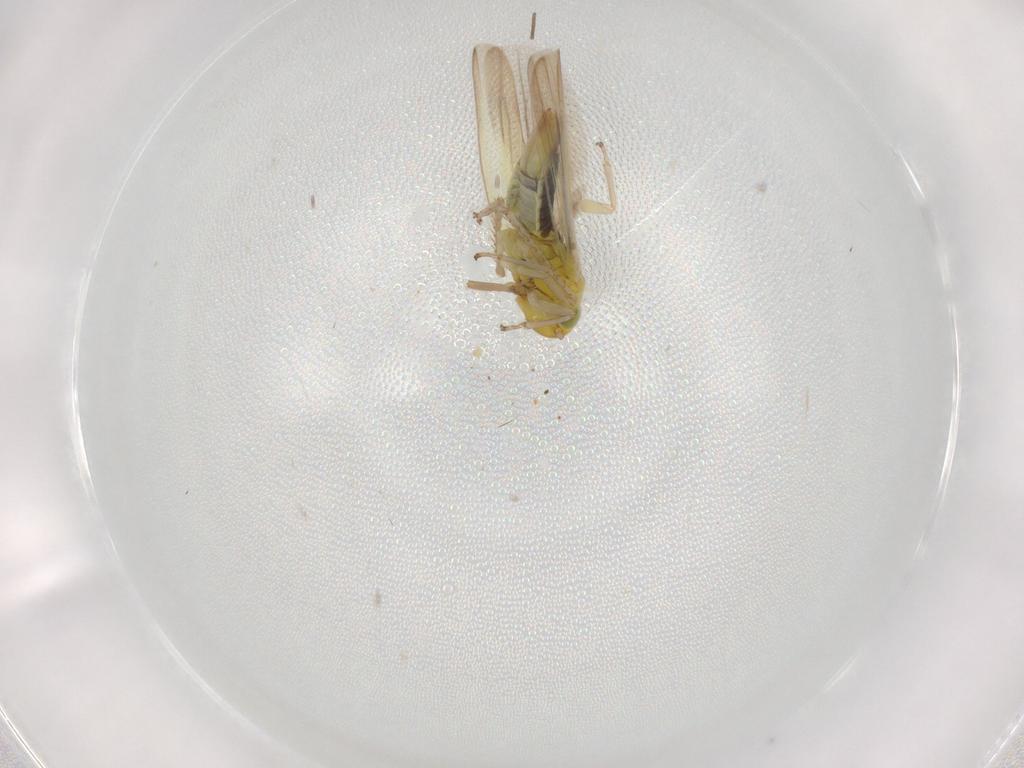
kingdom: Animalia
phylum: Arthropoda
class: Insecta
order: Hemiptera
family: Cicadellidae
